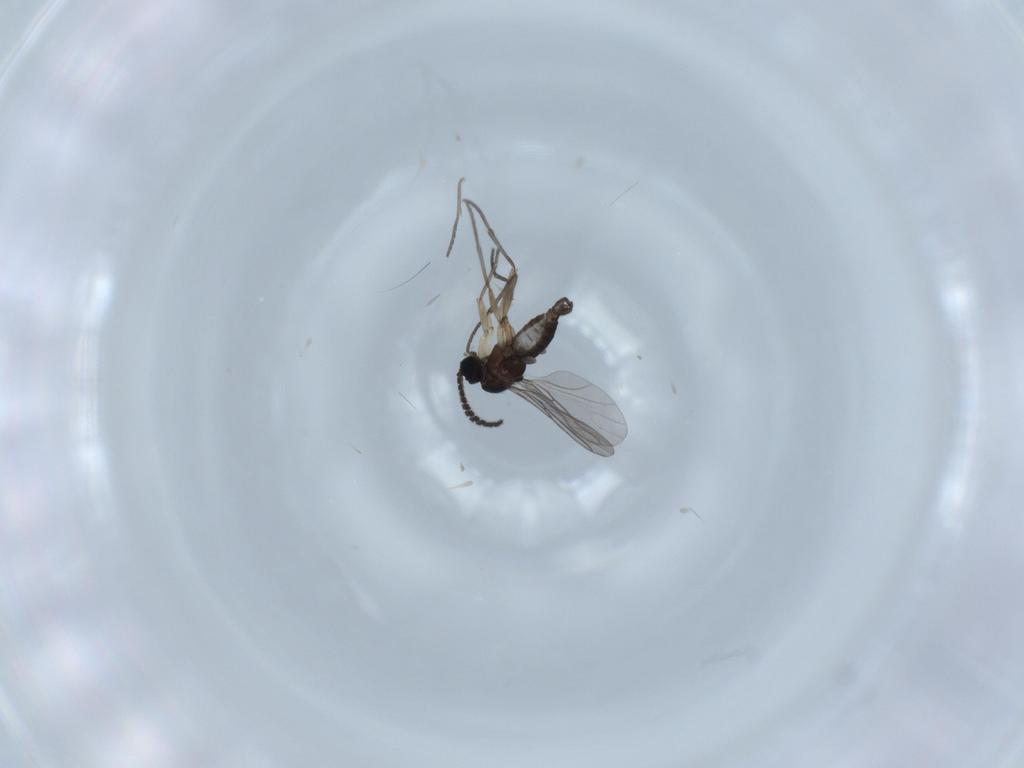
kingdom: Animalia
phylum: Arthropoda
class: Insecta
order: Diptera
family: Sciaridae
